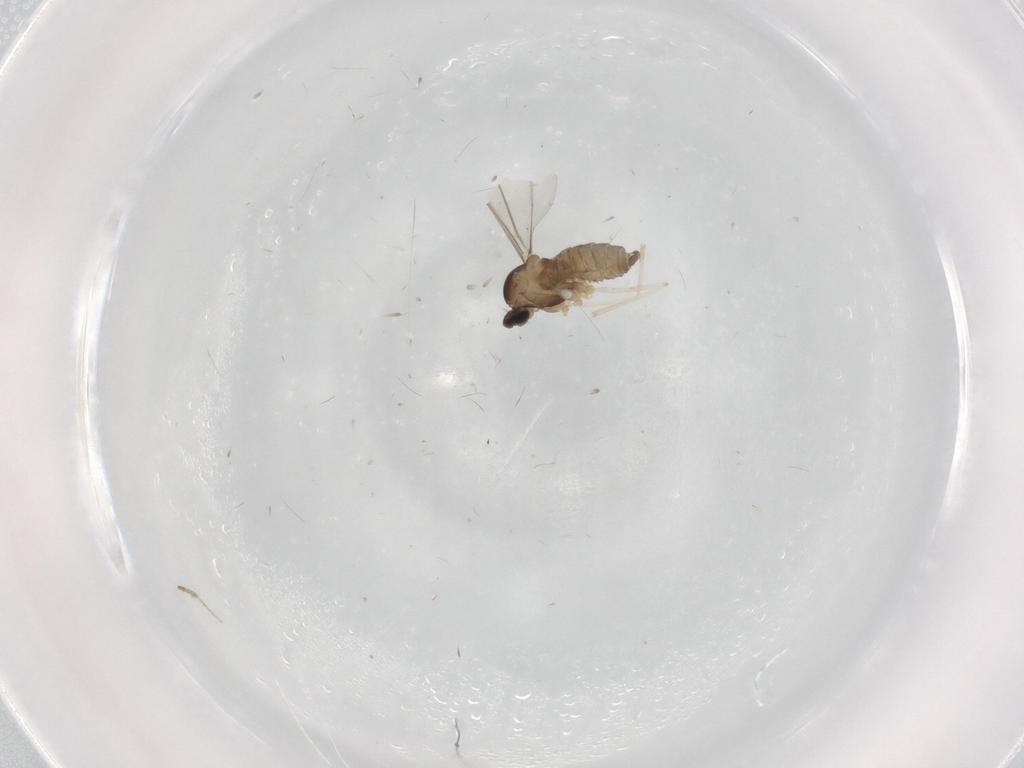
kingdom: Animalia
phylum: Arthropoda
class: Insecta
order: Diptera
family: Cecidomyiidae
